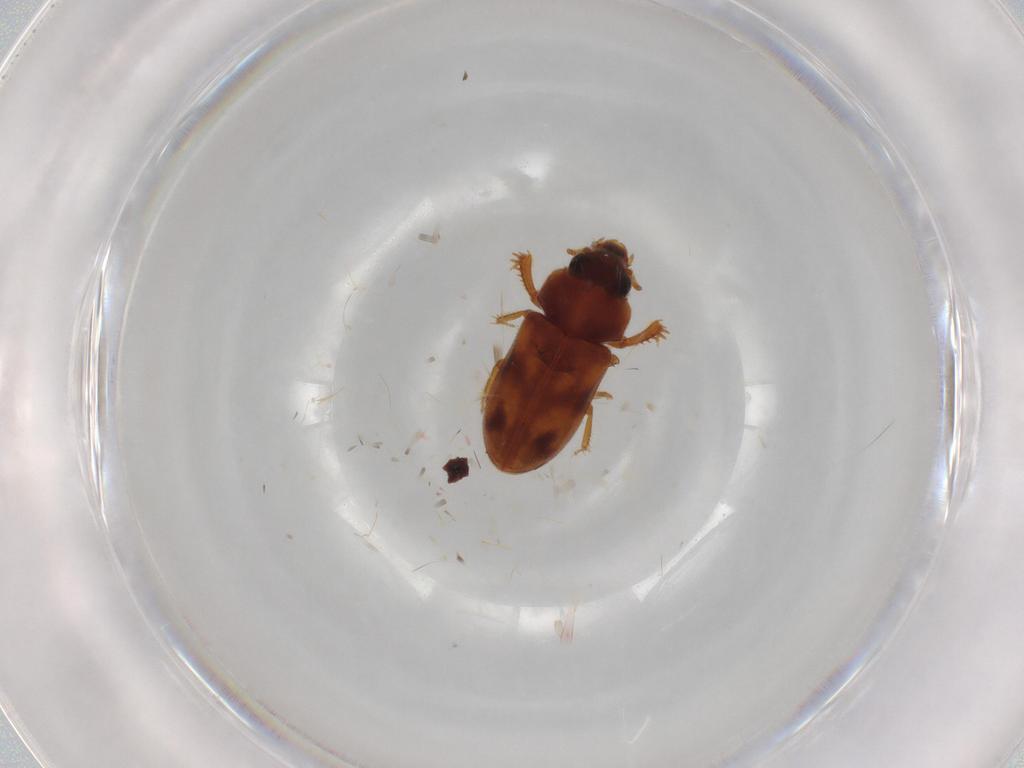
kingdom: Animalia
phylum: Arthropoda
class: Insecta
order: Coleoptera
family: Heteroceridae
